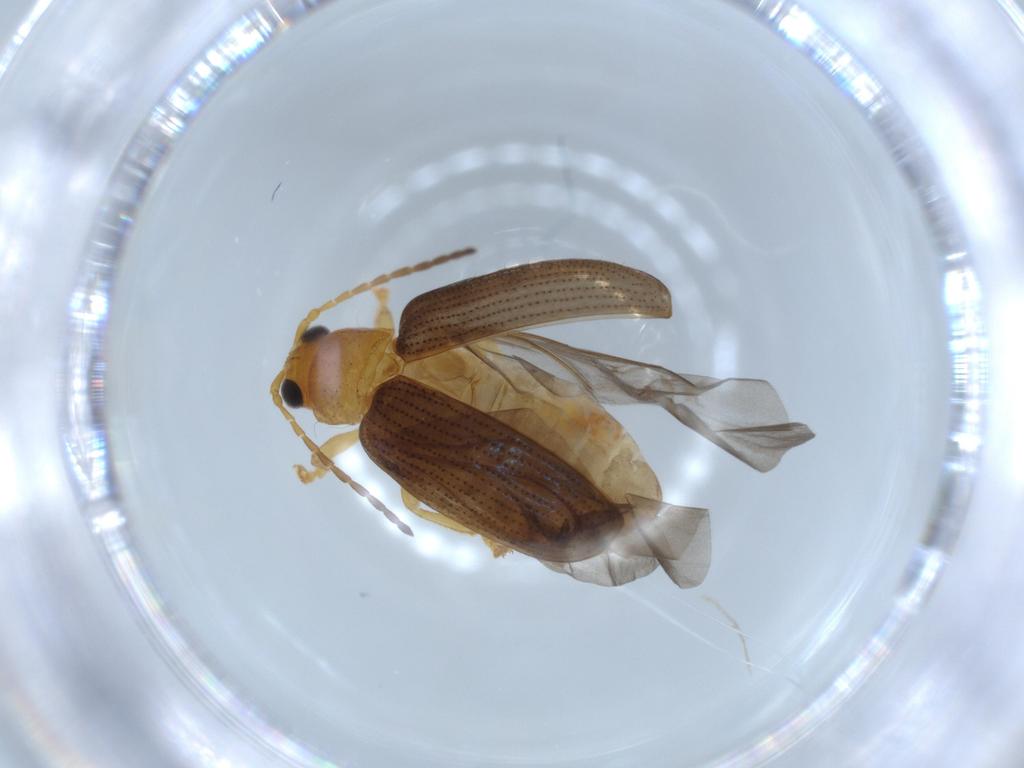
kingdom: Animalia
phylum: Arthropoda
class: Insecta
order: Coleoptera
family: Chrysomelidae
